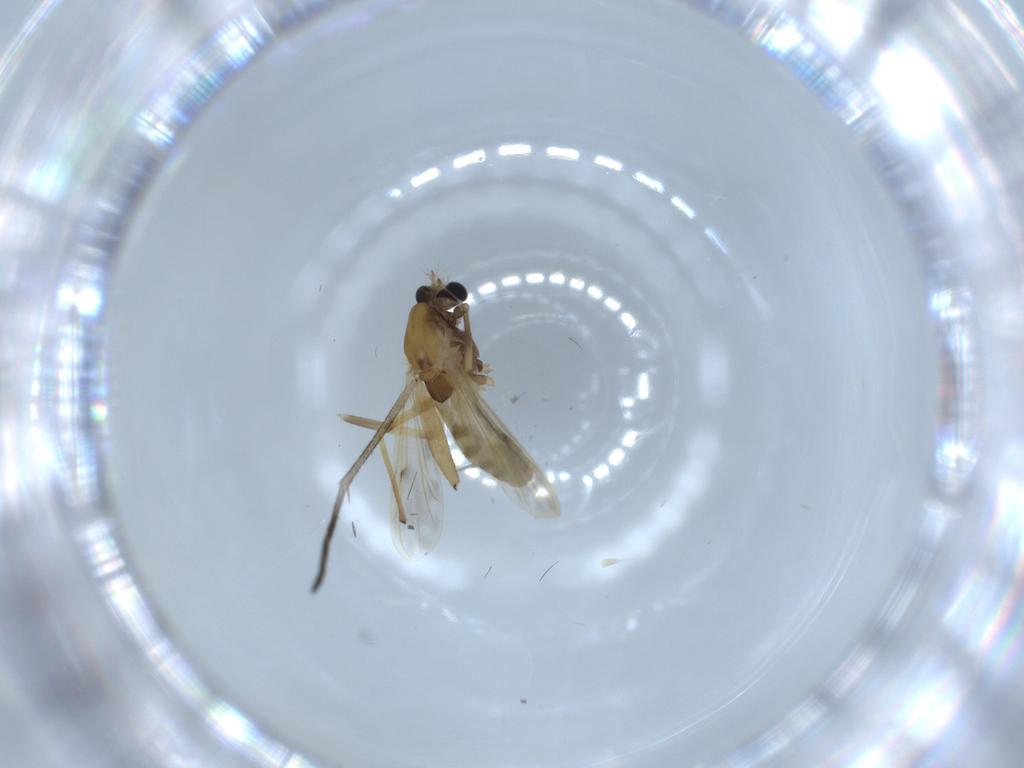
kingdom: Animalia
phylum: Arthropoda
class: Insecta
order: Diptera
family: Chironomidae
